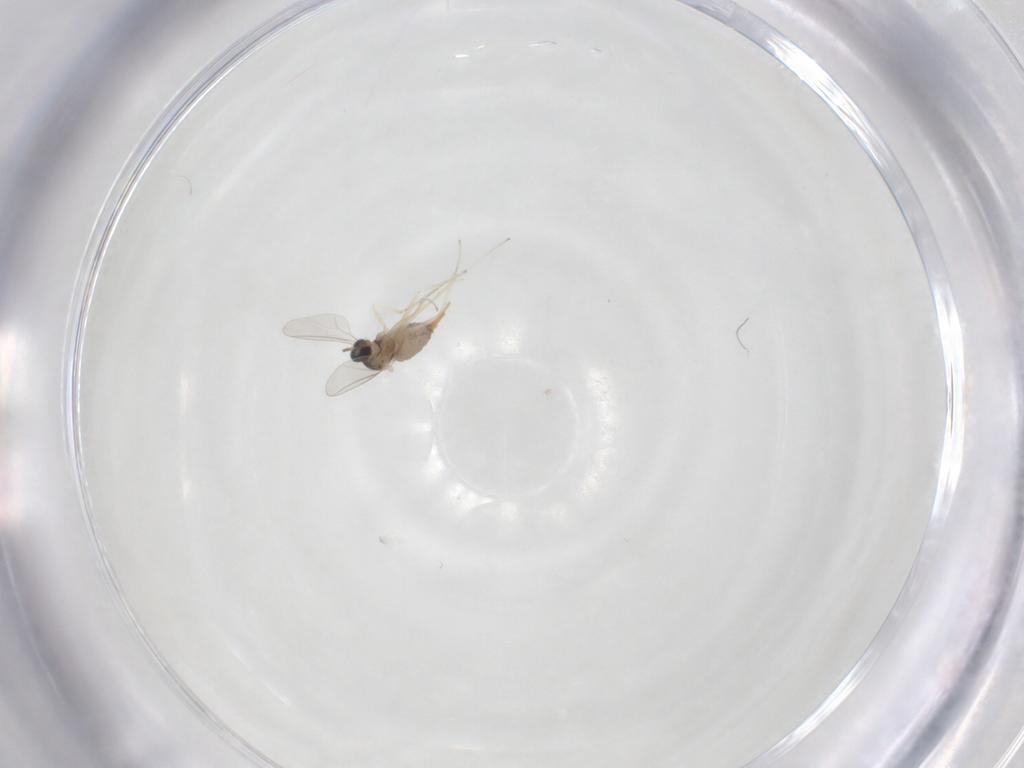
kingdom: Animalia
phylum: Arthropoda
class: Insecta
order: Diptera
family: Cecidomyiidae
